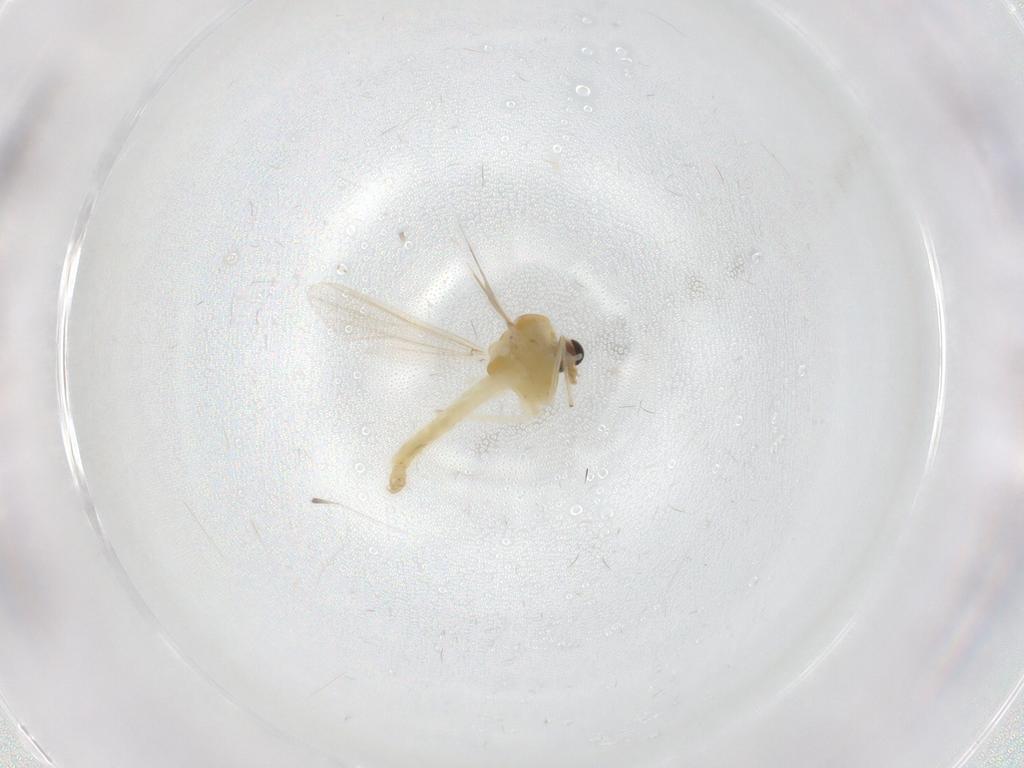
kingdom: Animalia
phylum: Arthropoda
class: Insecta
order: Diptera
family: Chironomidae
